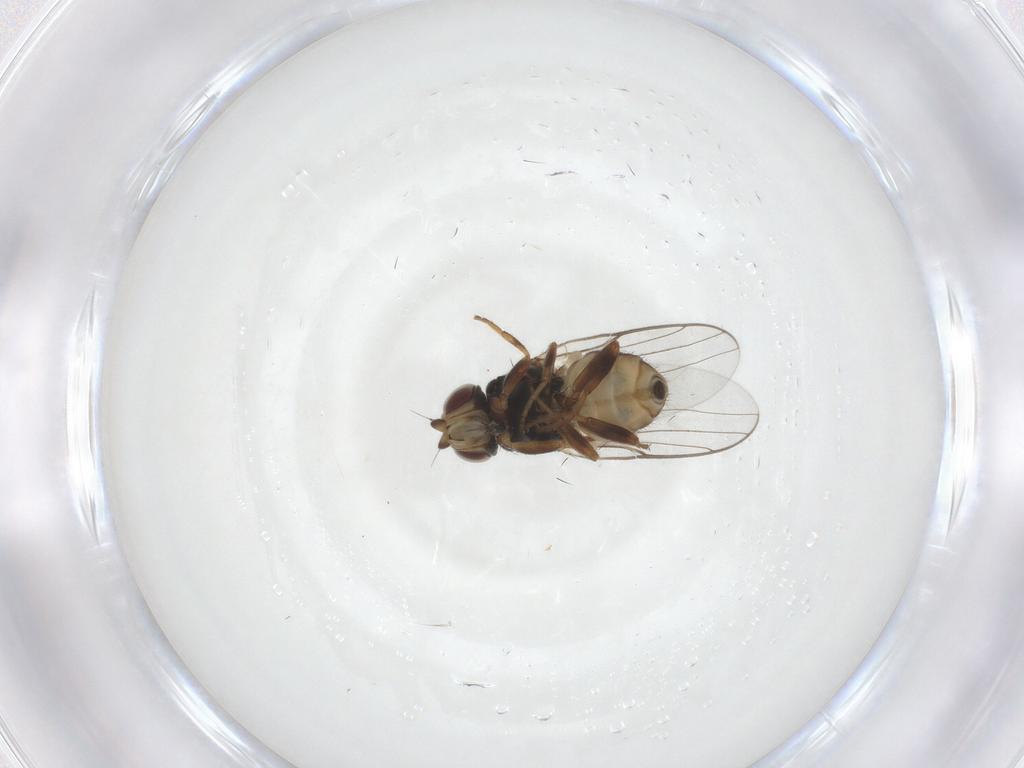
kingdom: Animalia
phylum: Arthropoda
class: Insecta
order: Diptera
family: Chloropidae
